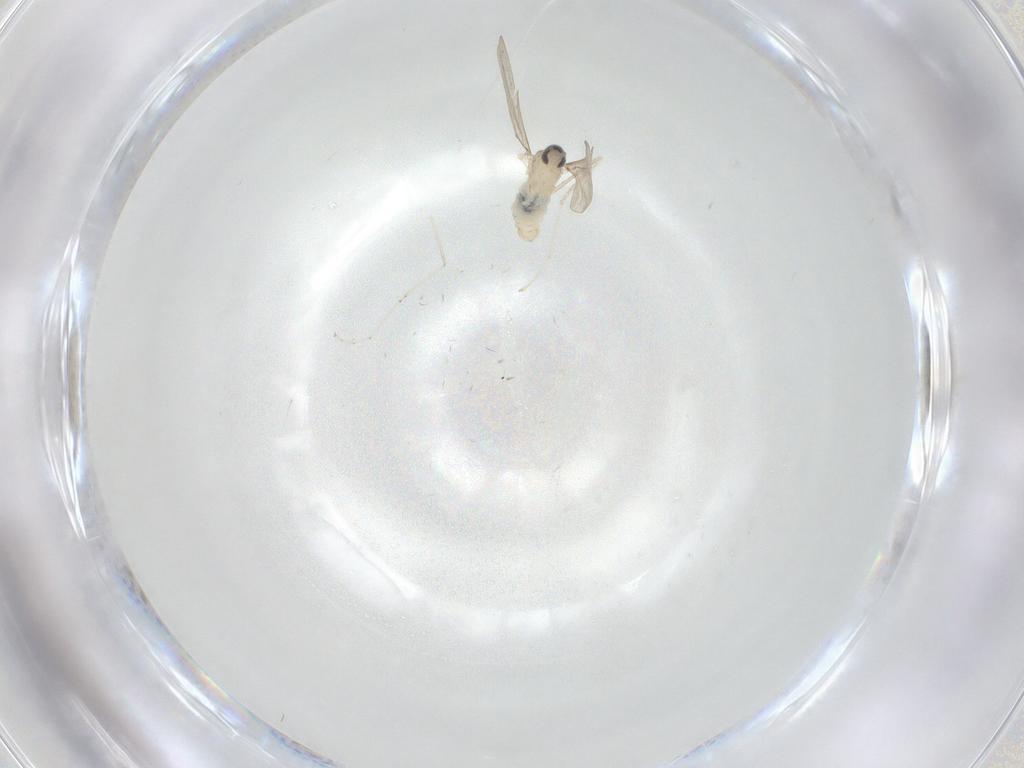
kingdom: Animalia
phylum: Arthropoda
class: Insecta
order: Diptera
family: Cecidomyiidae
